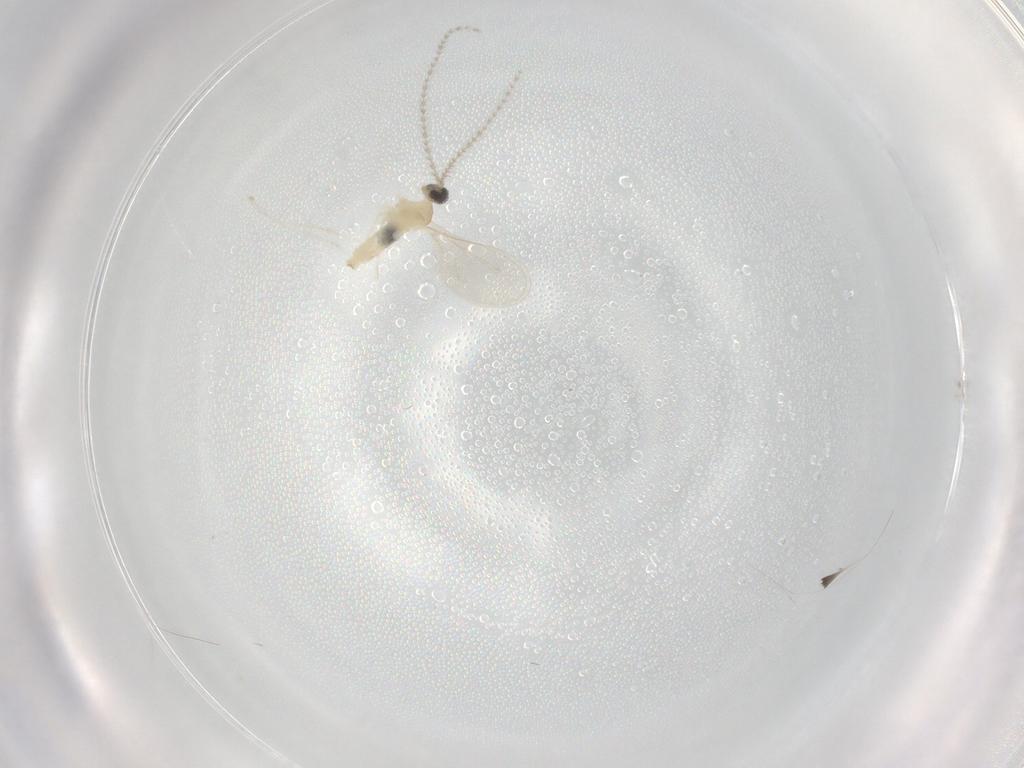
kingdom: Animalia
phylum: Arthropoda
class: Insecta
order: Diptera
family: Cecidomyiidae
